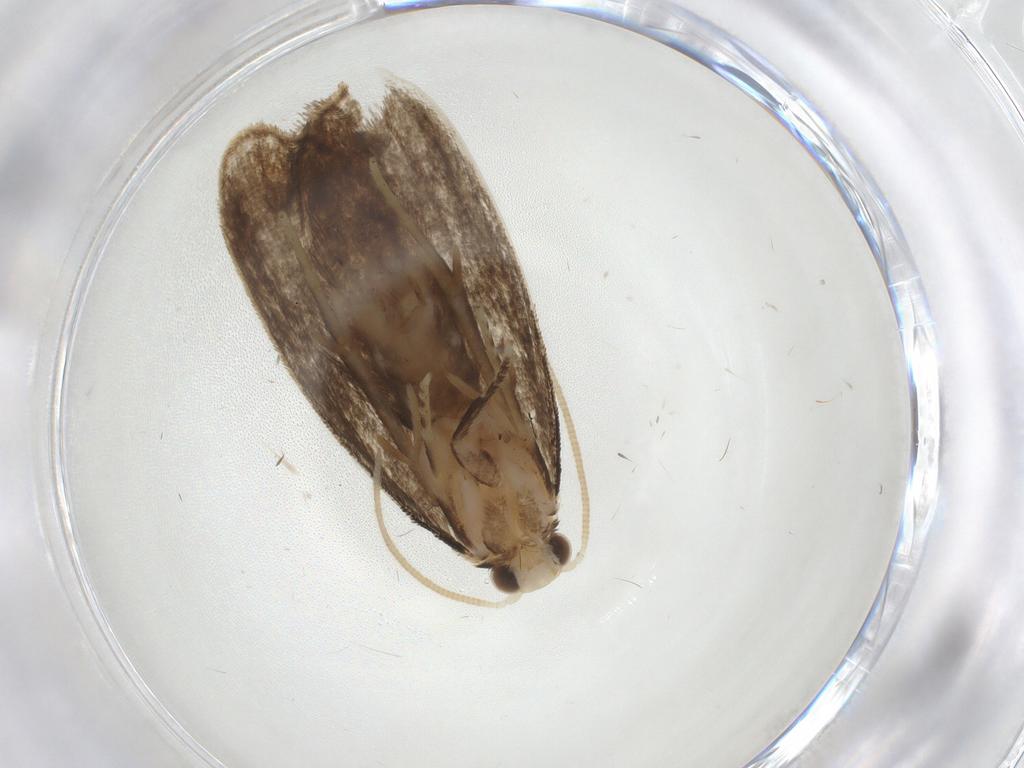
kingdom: Animalia
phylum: Arthropoda
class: Insecta
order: Lepidoptera
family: Dryadaulidae
